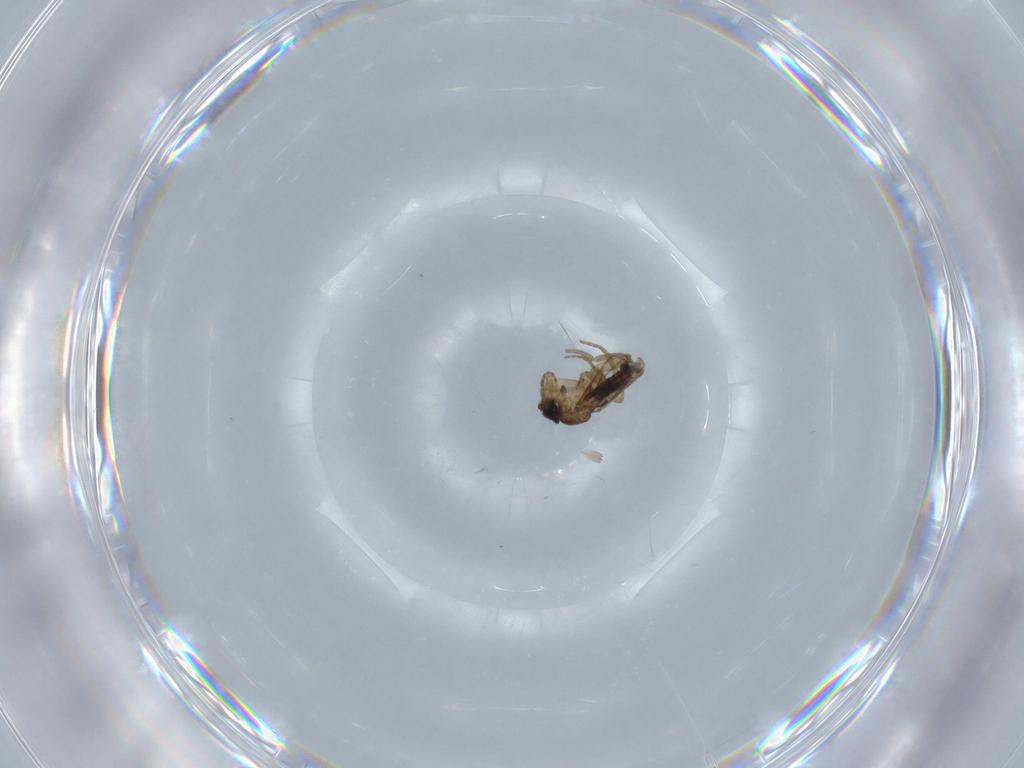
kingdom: Animalia
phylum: Arthropoda
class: Insecta
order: Diptera
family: Phoridae
